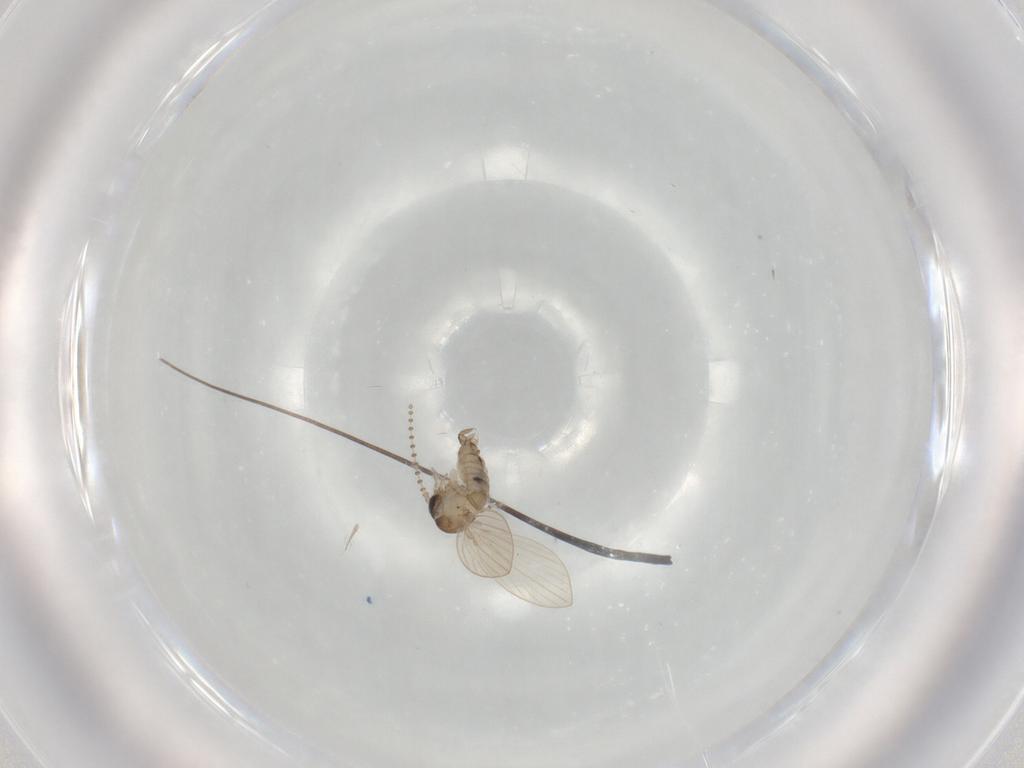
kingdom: Animalia
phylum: Arthropoda
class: Insecta
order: Diptera
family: Psychodidae
